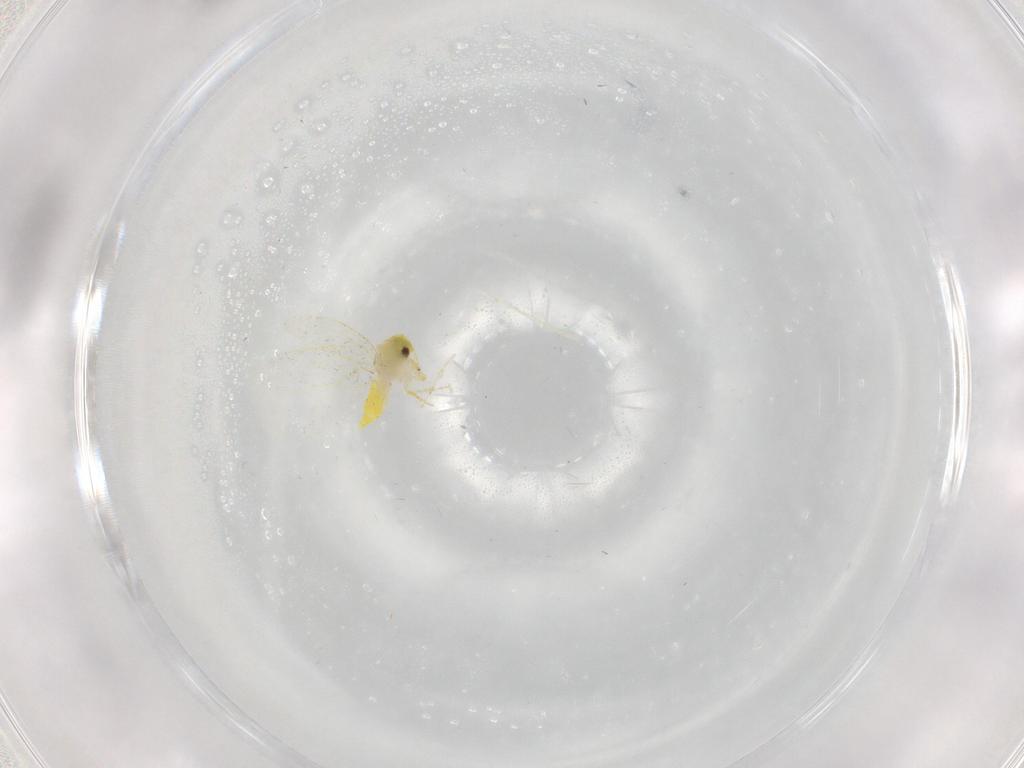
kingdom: Animalia
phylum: Arthropoda
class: Insecta
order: Hemiptera
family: Aleyrodidae
